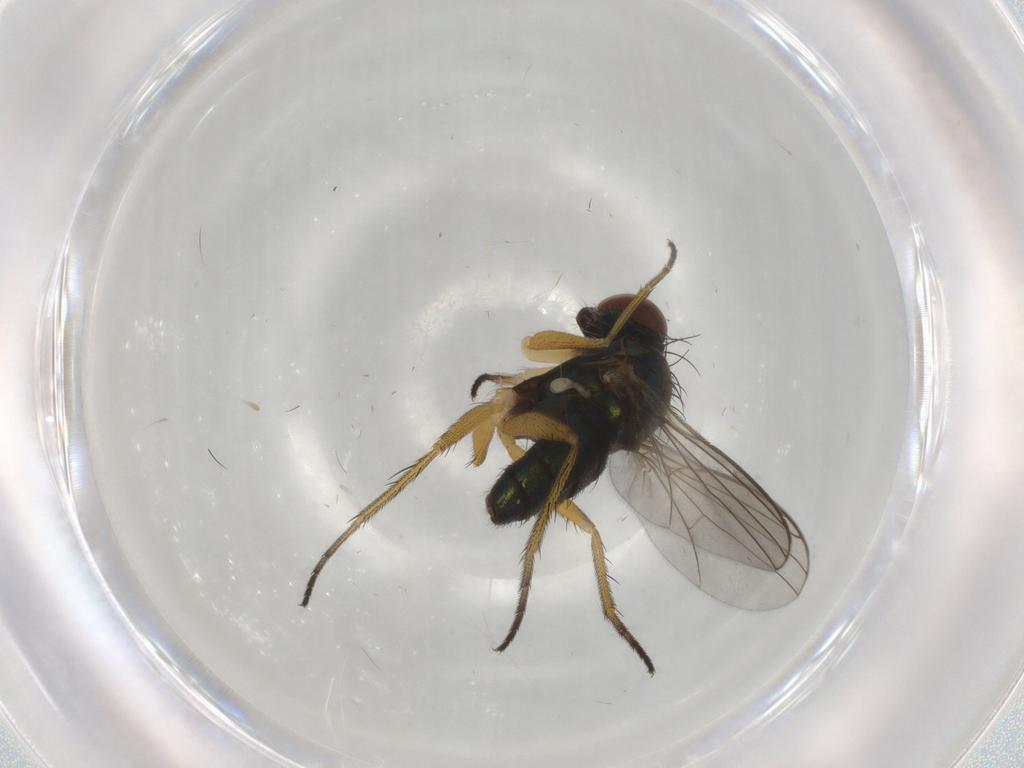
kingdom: Animalia
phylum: Arthropoda
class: Insecta
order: Diptera
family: Dolichopodidae
